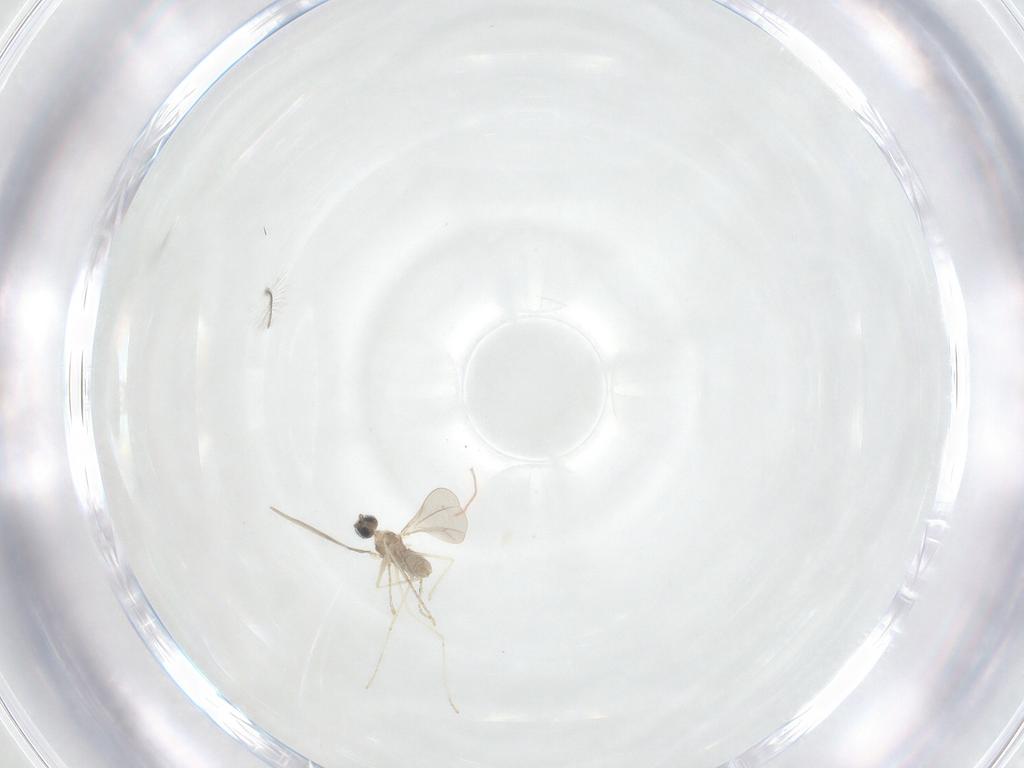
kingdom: Animalia
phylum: Arthropoda
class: Insecta
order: Diptera
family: Cecidomyiidae
